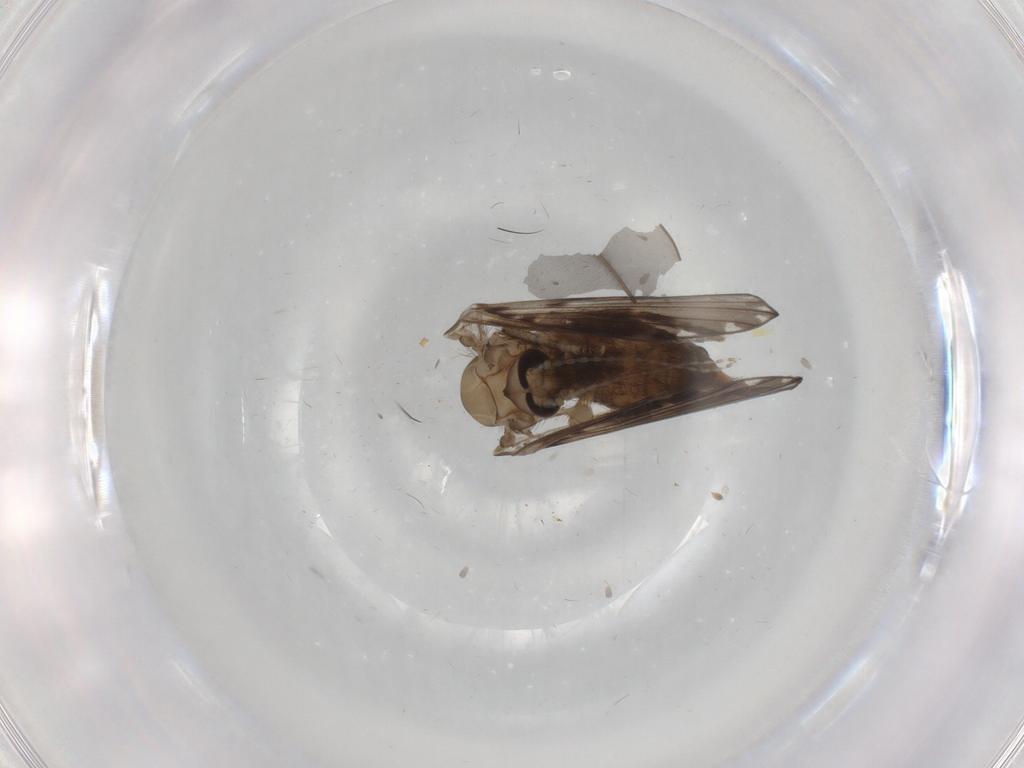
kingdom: Animalia
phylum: Arthropoda
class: Insecta
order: Diptera
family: Psychodidae
